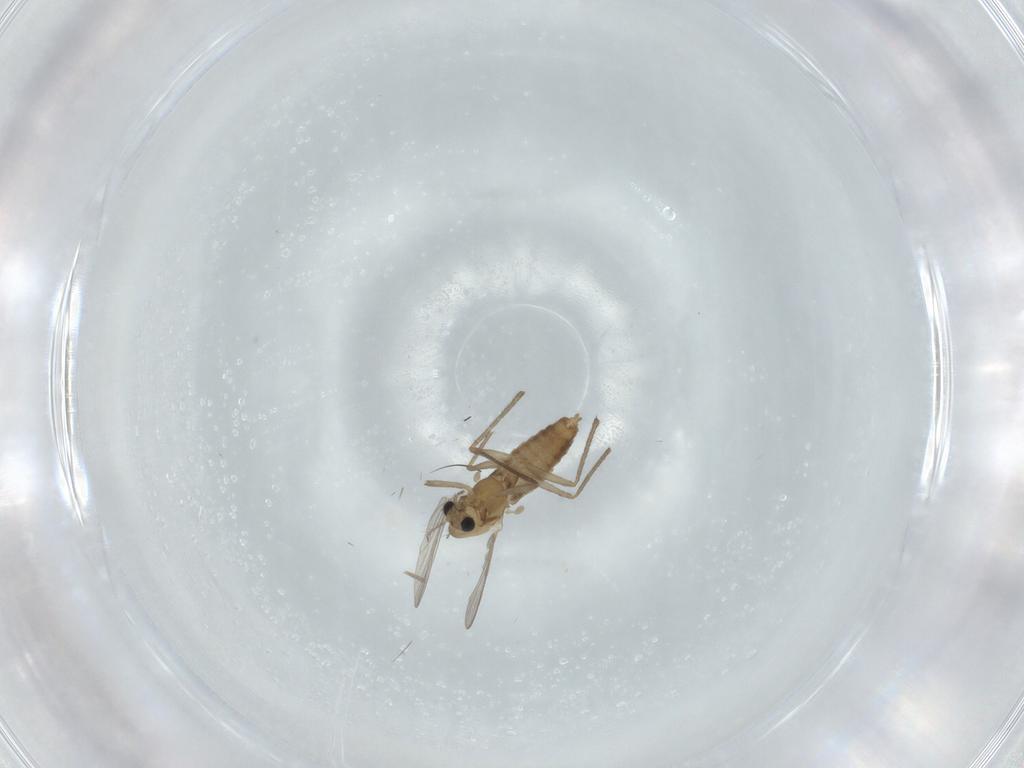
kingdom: Animalia
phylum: Arthropoda
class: Insecta
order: Diptera
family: Chironomidae
